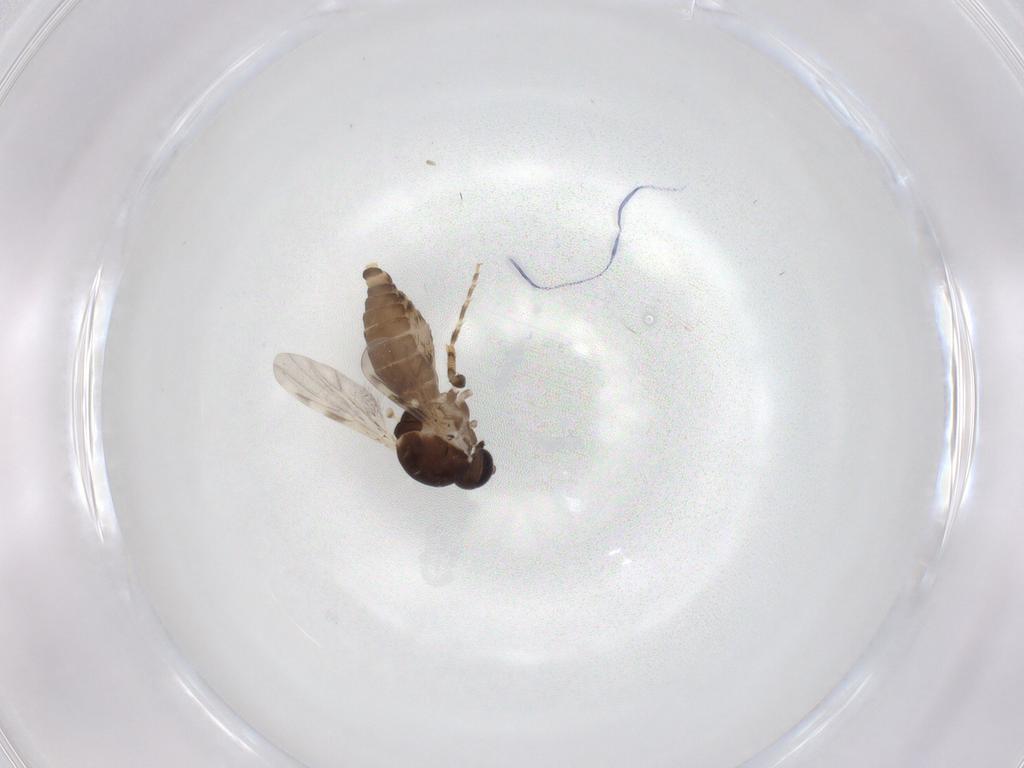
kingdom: Animalia
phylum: Arthropoda
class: Insecta
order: Diptera
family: Ceratopogonidae
